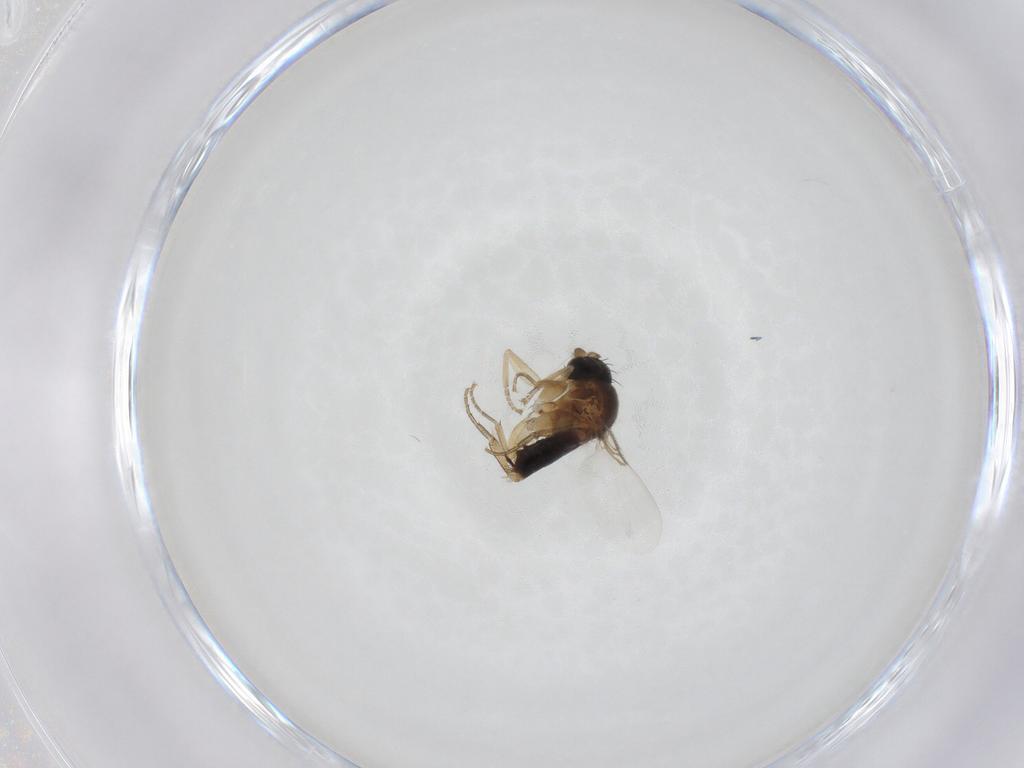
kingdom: Animalia
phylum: Arthropoda
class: Insecta
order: Diptera
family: Phoridae
